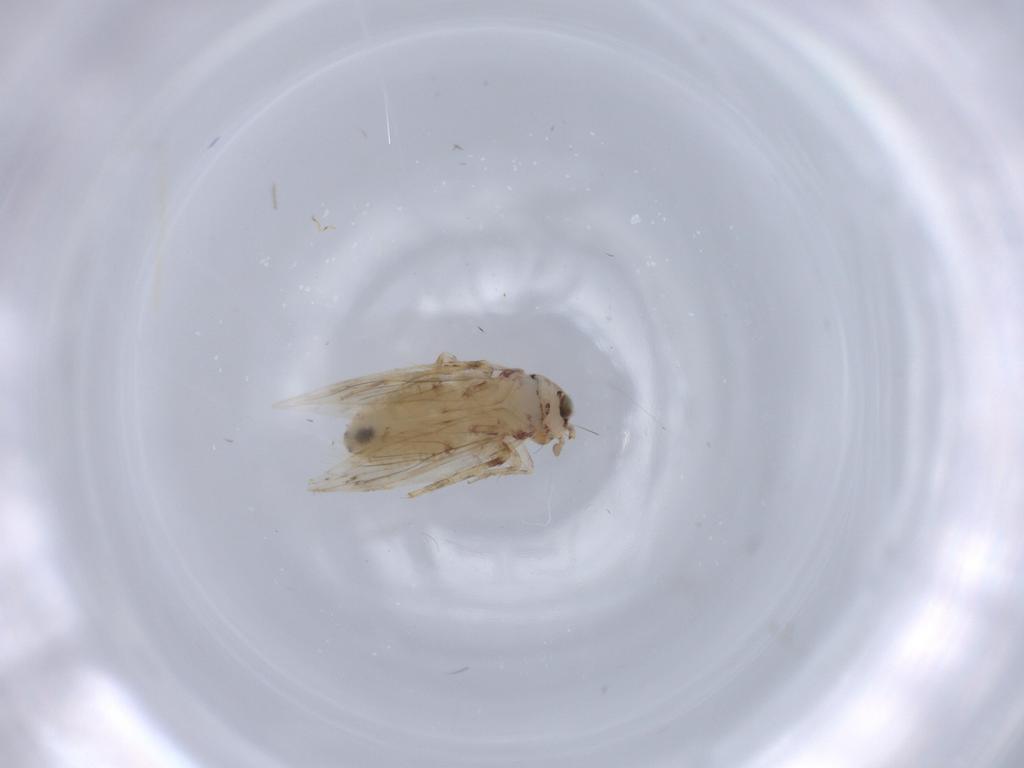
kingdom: Animalia
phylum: Arthropoda
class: Insecta
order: Psocodea
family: Lepidopsocidae
